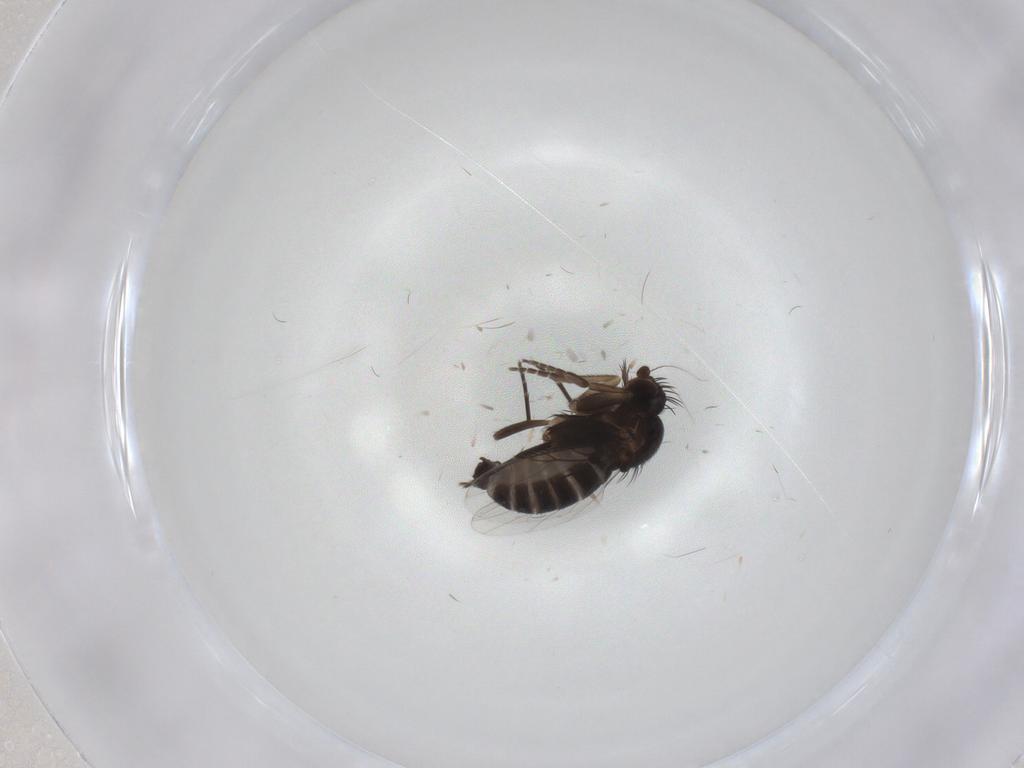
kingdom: Animalia
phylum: Arthropoda
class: Insecta
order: Diptera
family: Phoridae
